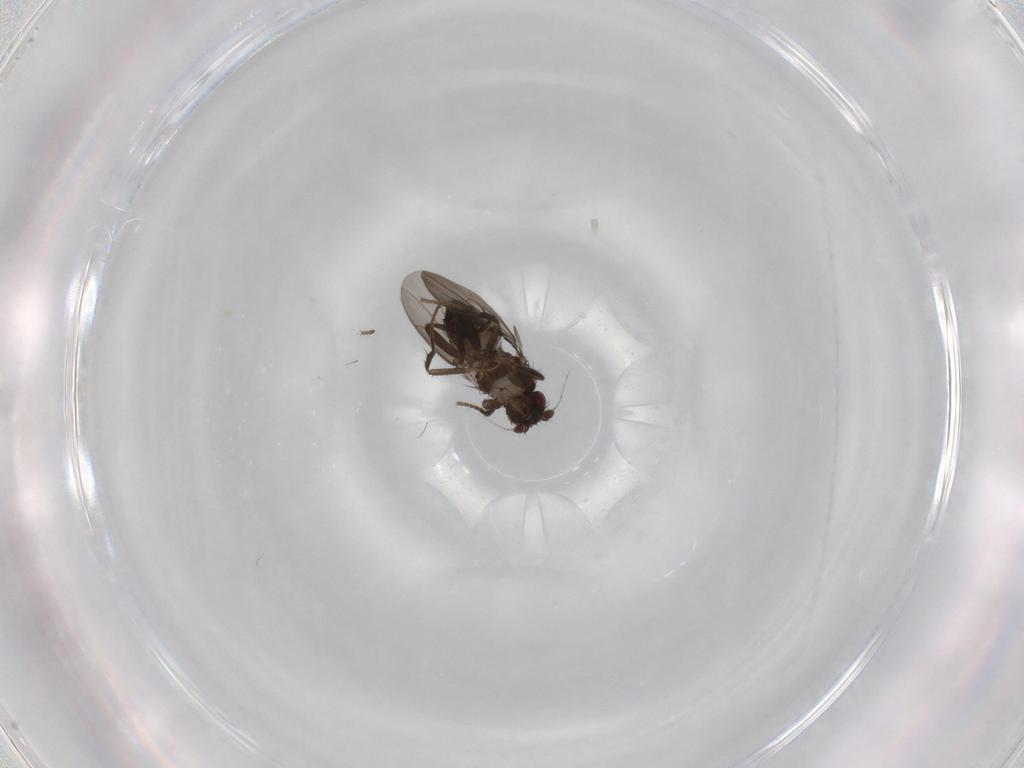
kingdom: Animalia
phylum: Arthropoda
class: Insecta
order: Diptera
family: Sphaeroceridae
